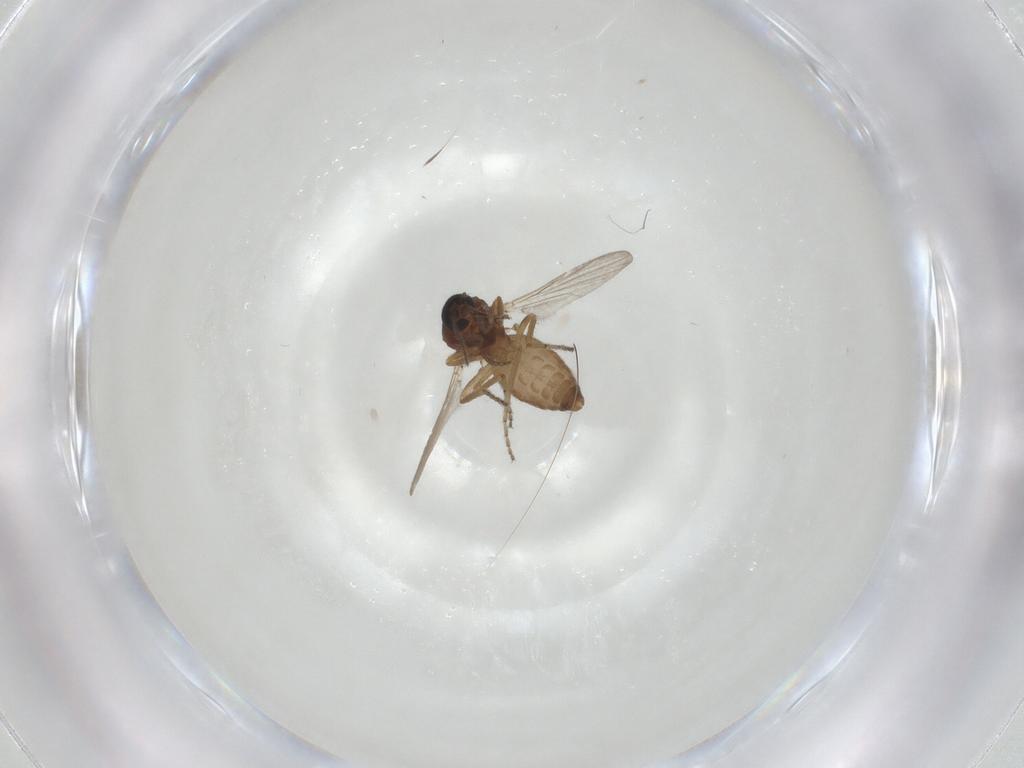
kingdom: Animalia
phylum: Arthropoda
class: Insecta
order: Diptera
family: Ceratopogonidae
